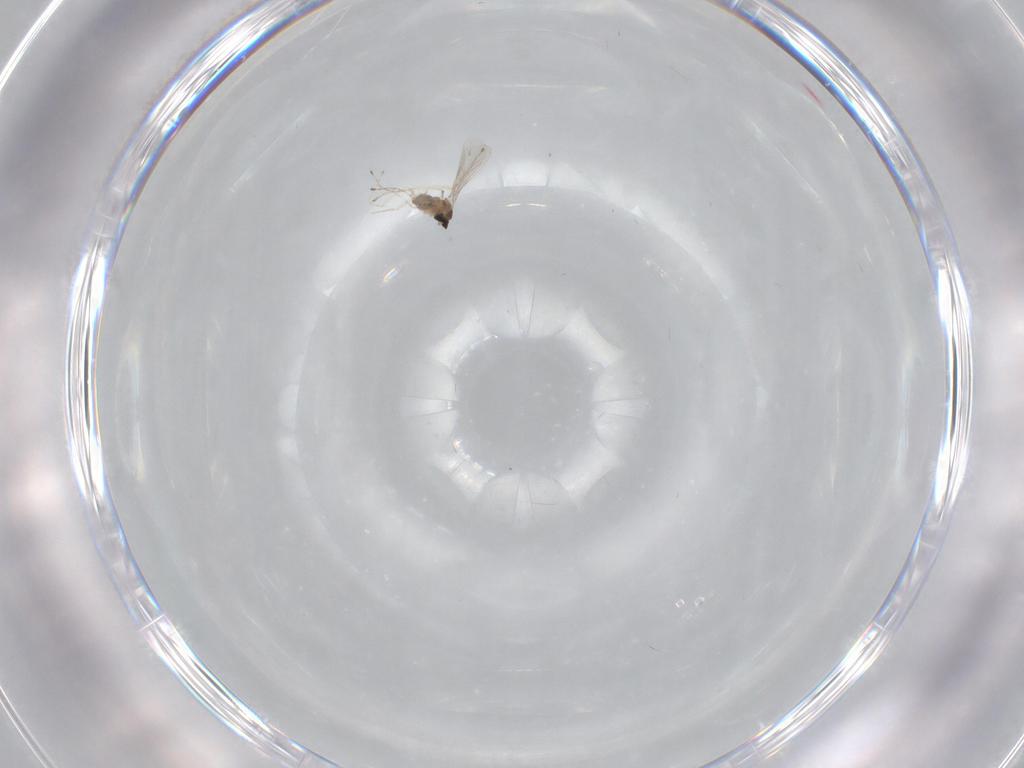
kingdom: Animalia
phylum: Arthropoda
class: Insecta
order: Diptera
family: Cecidomyiidae
